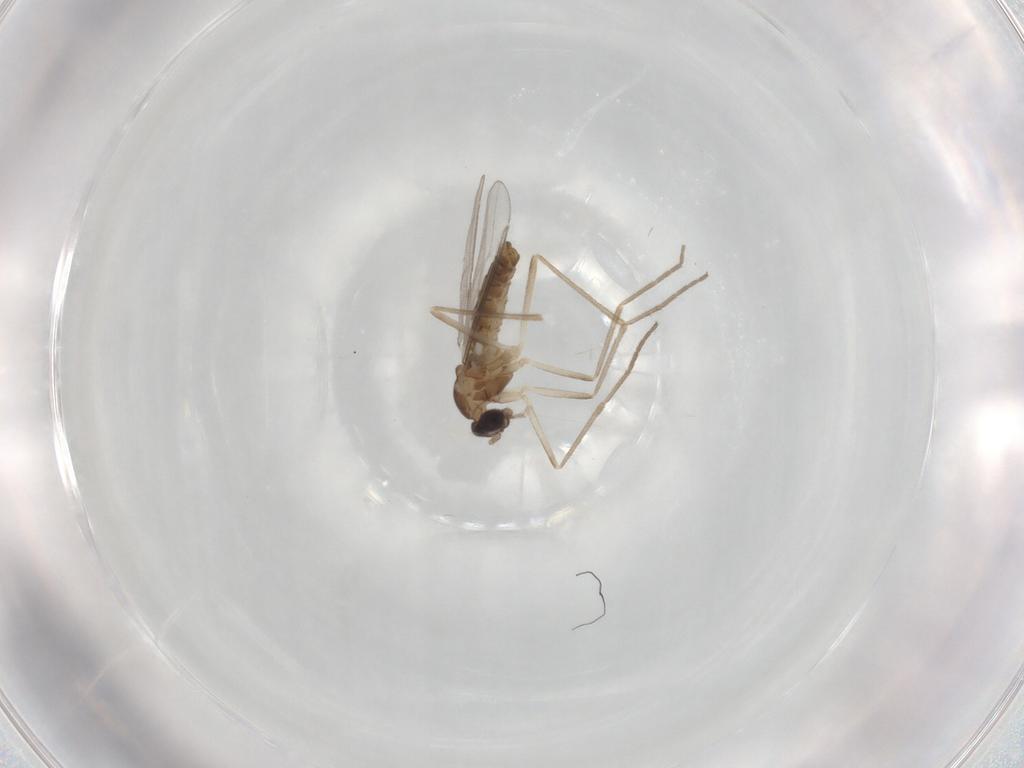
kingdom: Animalia
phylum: Arthropoda
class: Insecta
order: Diptera
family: Cecidomyiidae
